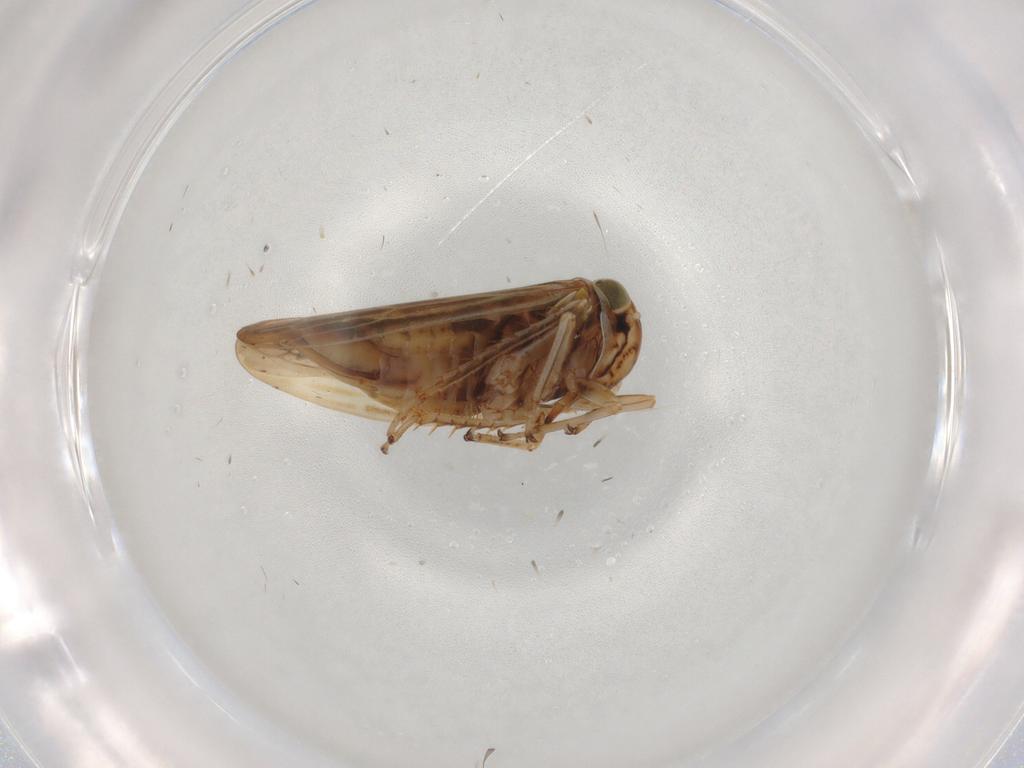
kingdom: Animalia
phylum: Arthropoda
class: Insecta
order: Hemiptera
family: Cicadellidae
